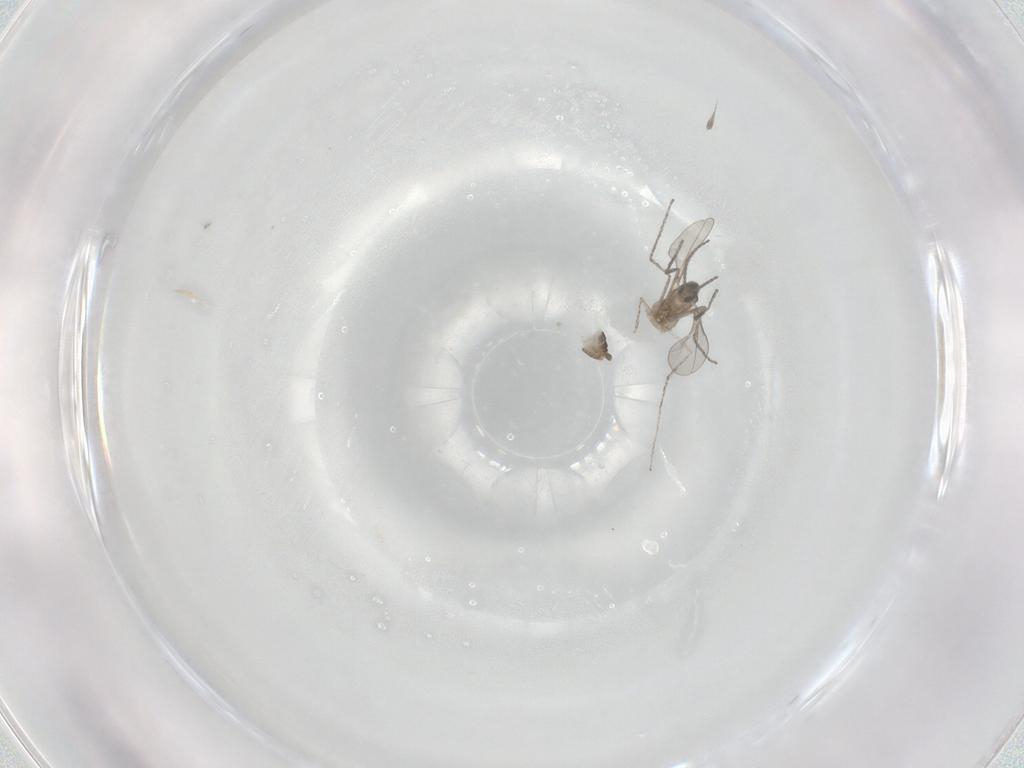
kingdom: Animalia
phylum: Arthropoda
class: Insecta
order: Diptera
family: Cecidomyiidae
